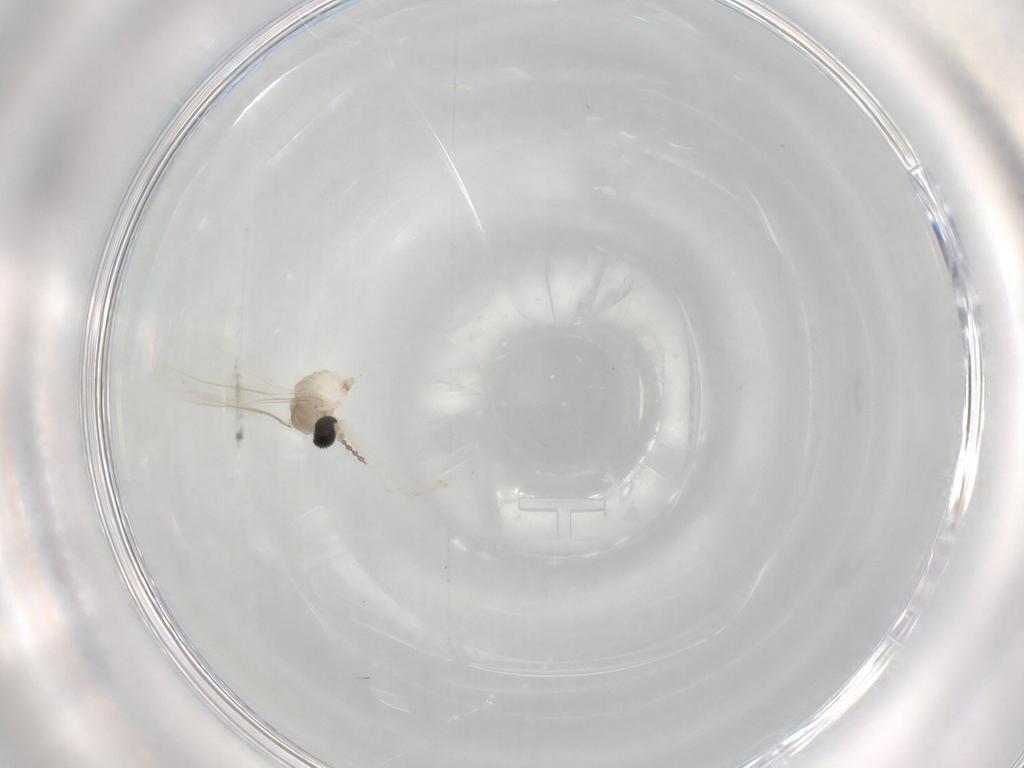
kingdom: Animalia
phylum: Arthropoda
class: Insecta
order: Diptera
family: Cecidomyiidae
